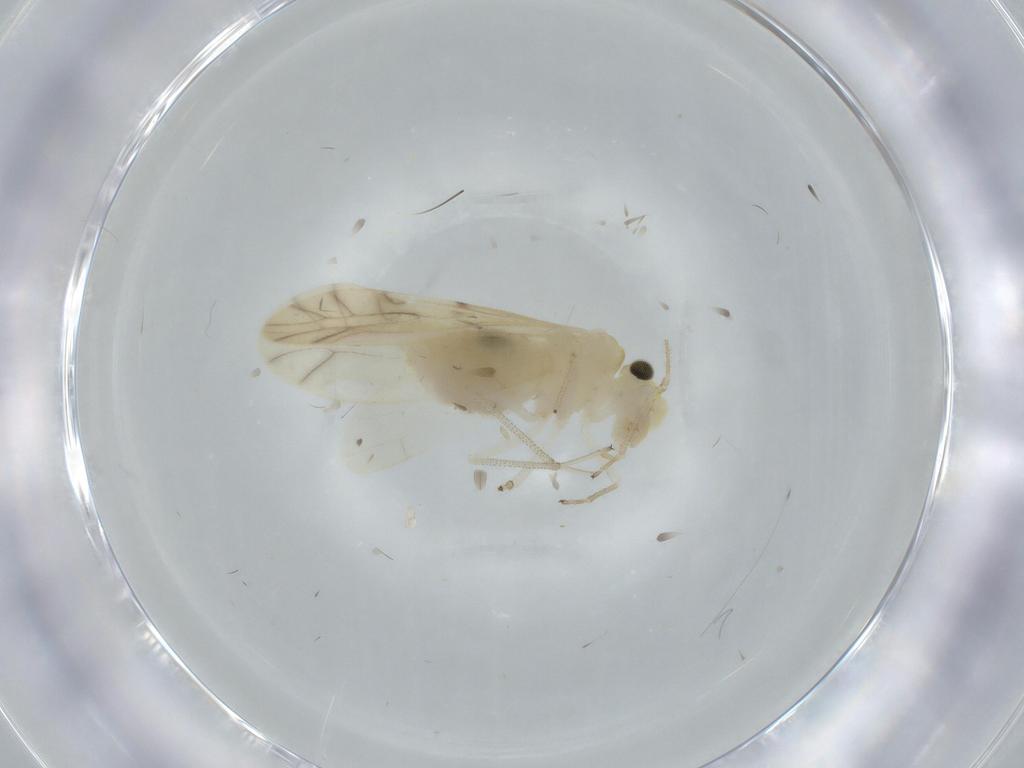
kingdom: Animalia
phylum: Arthropoda
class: Insecta
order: Psocodea
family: Caeciliusidae
